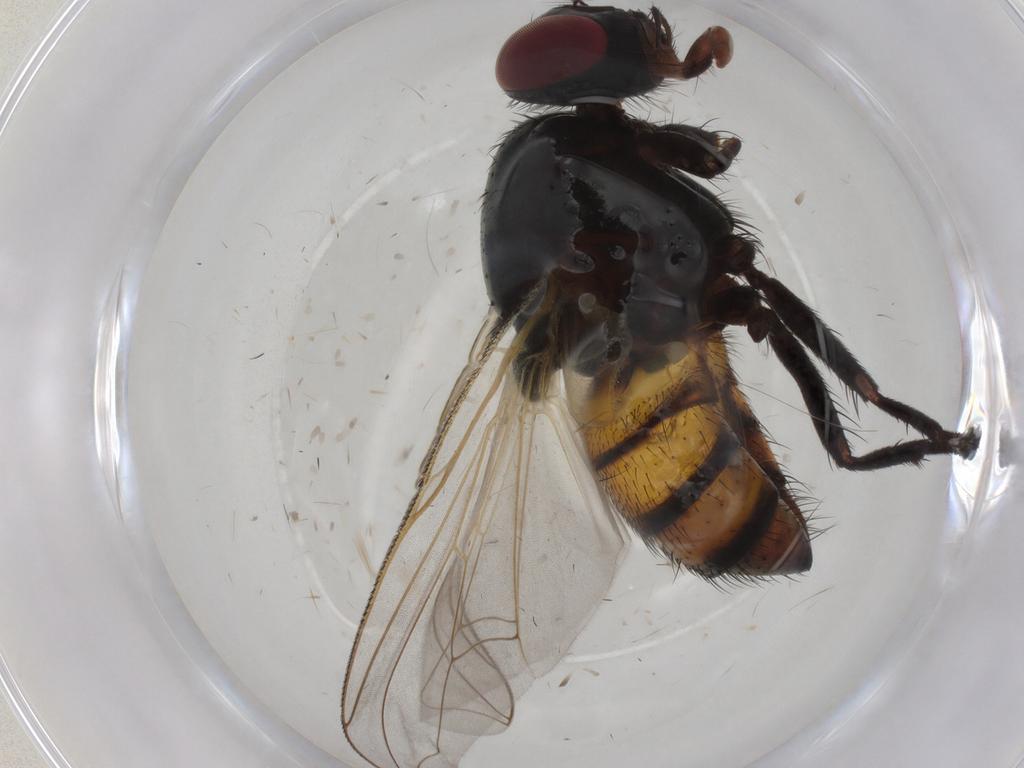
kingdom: Animalia
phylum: Arthropoda
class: Insecta
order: Diptera
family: Muscidae
